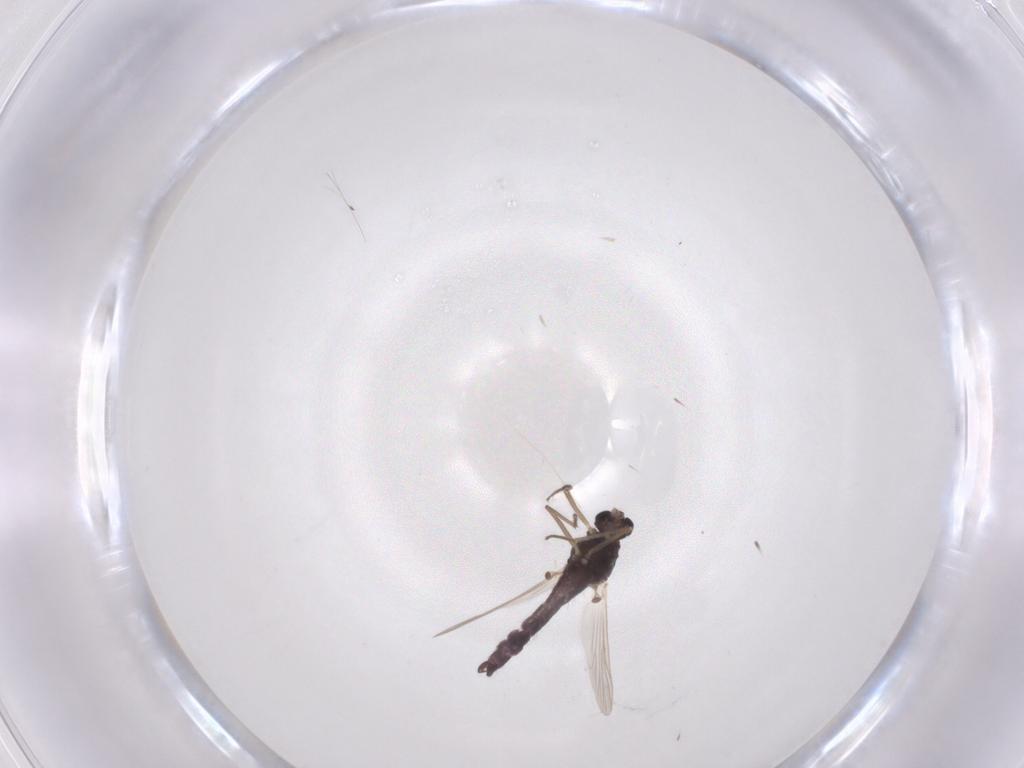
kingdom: Animalia
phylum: Arthropoda
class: Insecta
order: Diptera
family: Chironomidae
